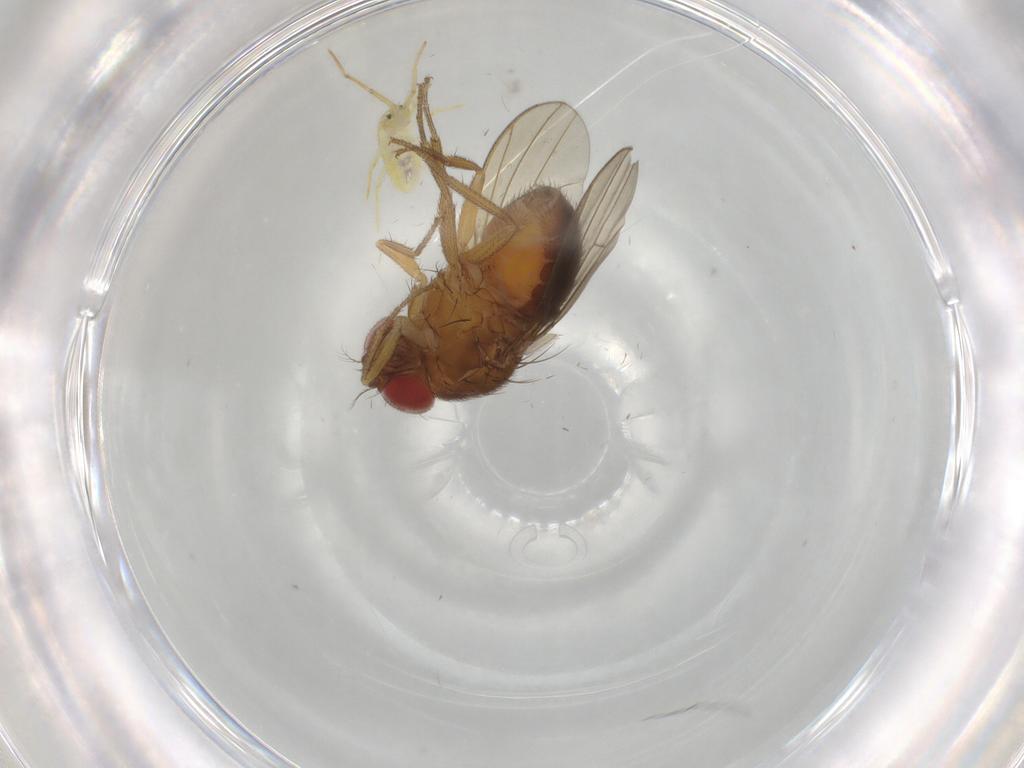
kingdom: Animalia
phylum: Arthropoda
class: Insecta
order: Diptera
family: Drosophilidae
